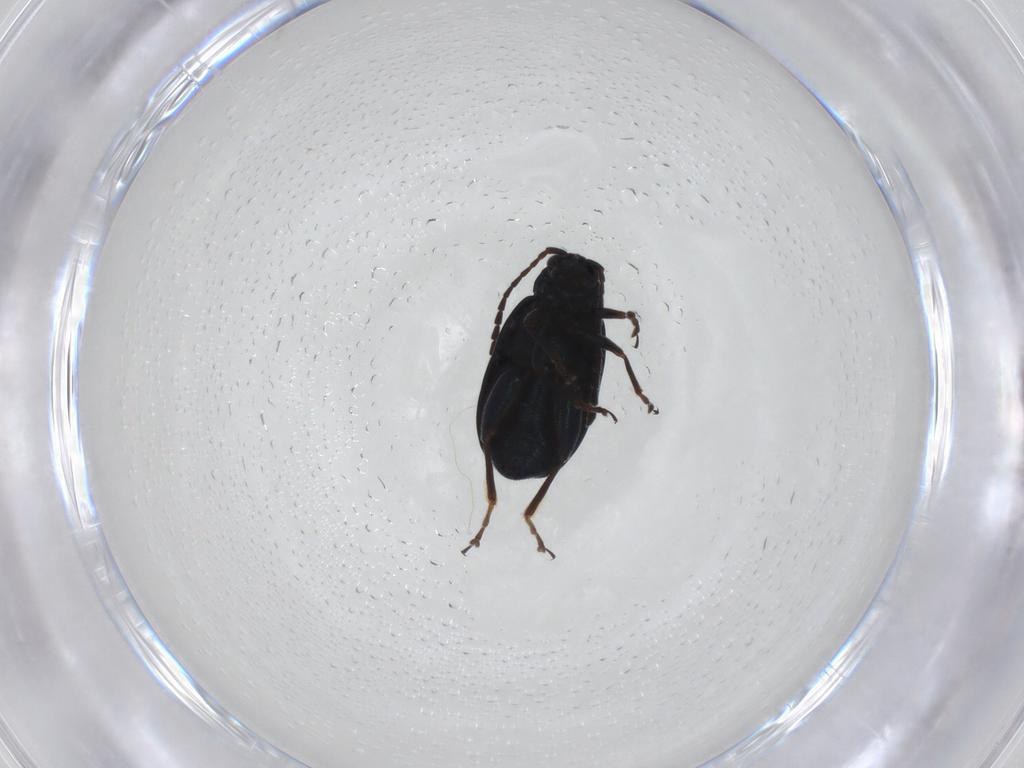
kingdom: Animalia
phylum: Arthropoda
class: Insecta
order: Coleoptera
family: Chrysomelidae
